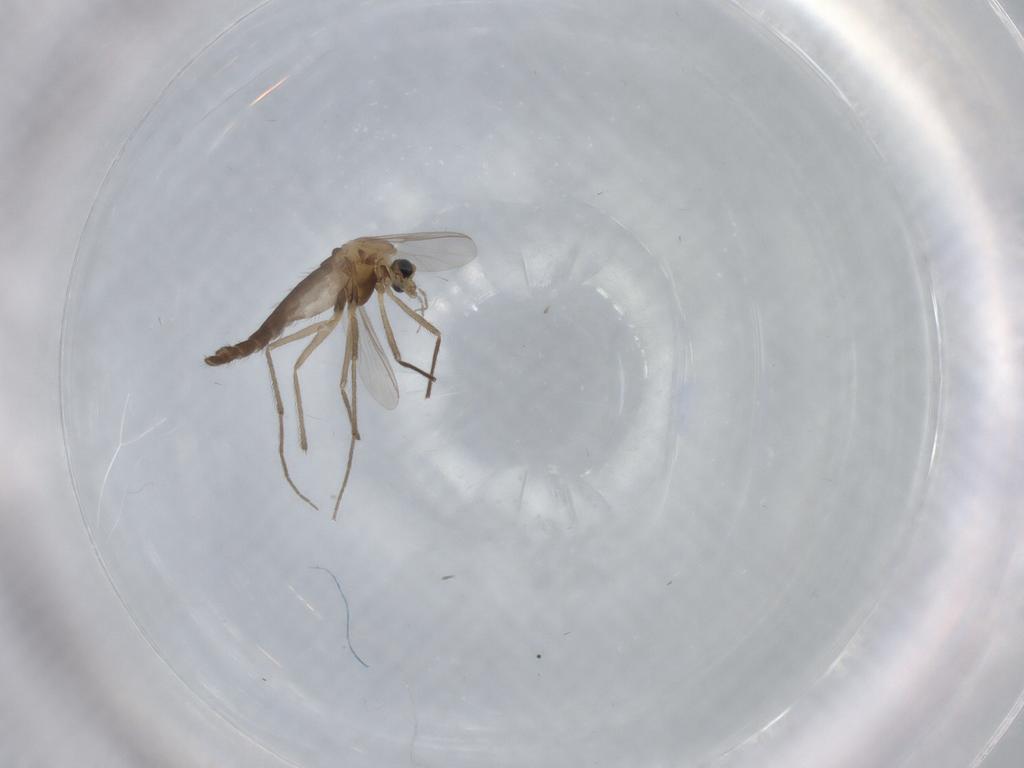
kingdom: Animalia
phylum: Arthropoda
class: Insecta
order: Diptera
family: Chironomidae
